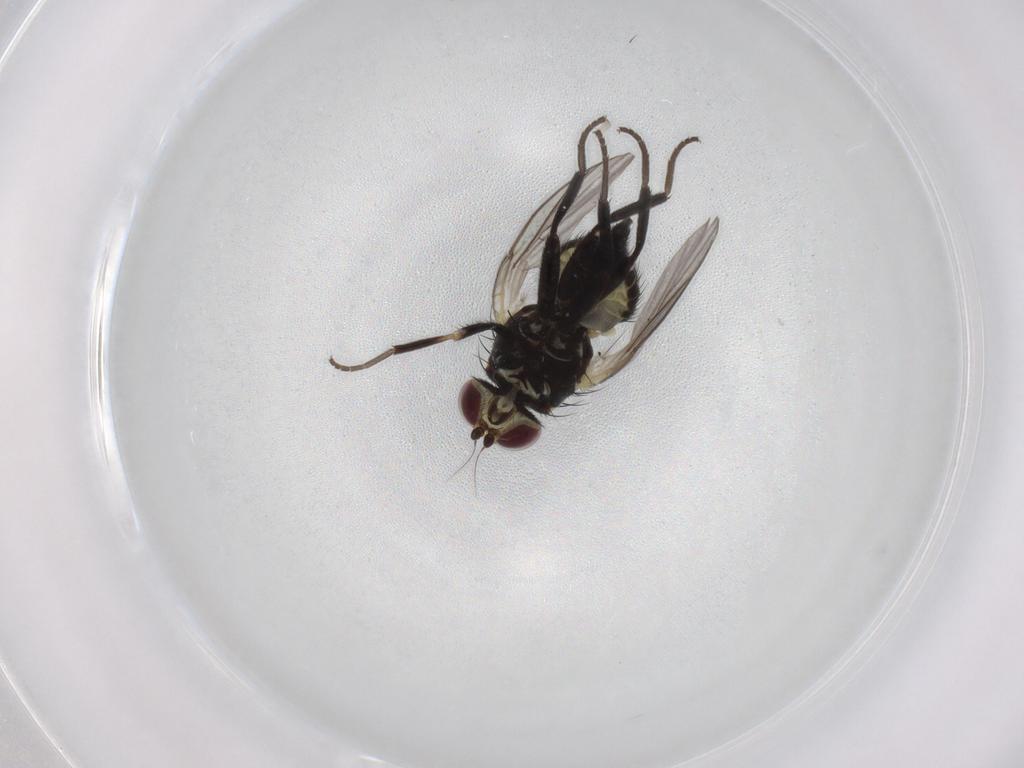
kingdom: Animalia
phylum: Arthropoda
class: Insecta
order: Diptera
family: Agromyzidae
